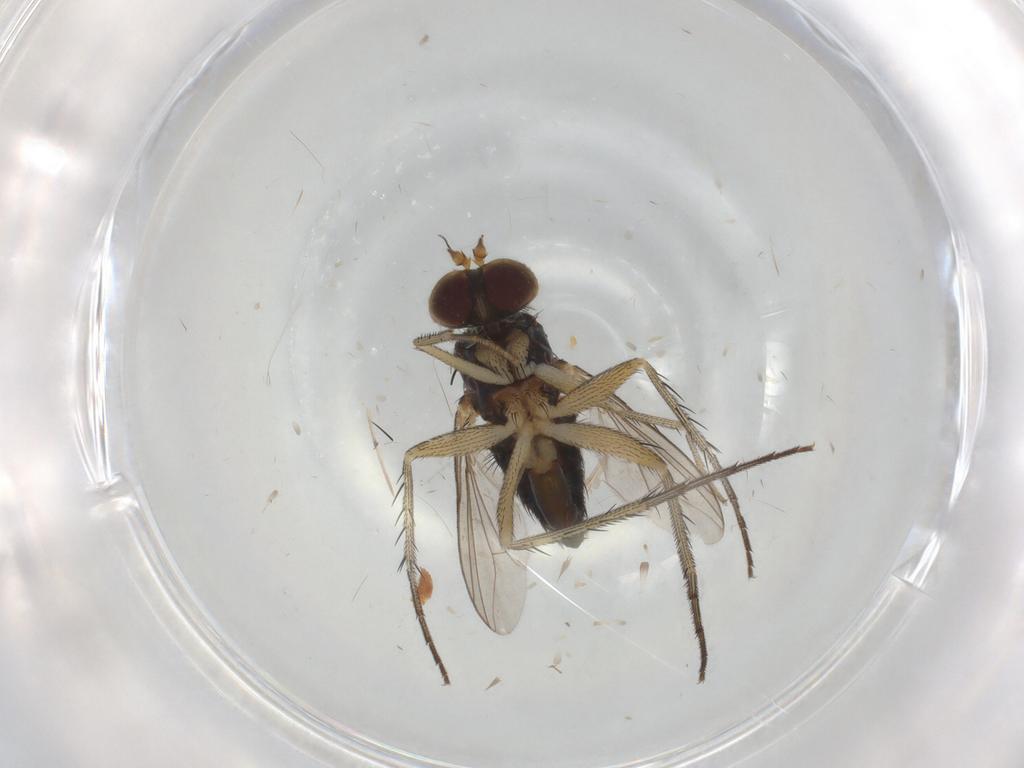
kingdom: Animalia
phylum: Arthropoda
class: Insecta
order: Diptera
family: Dolichopodidae
